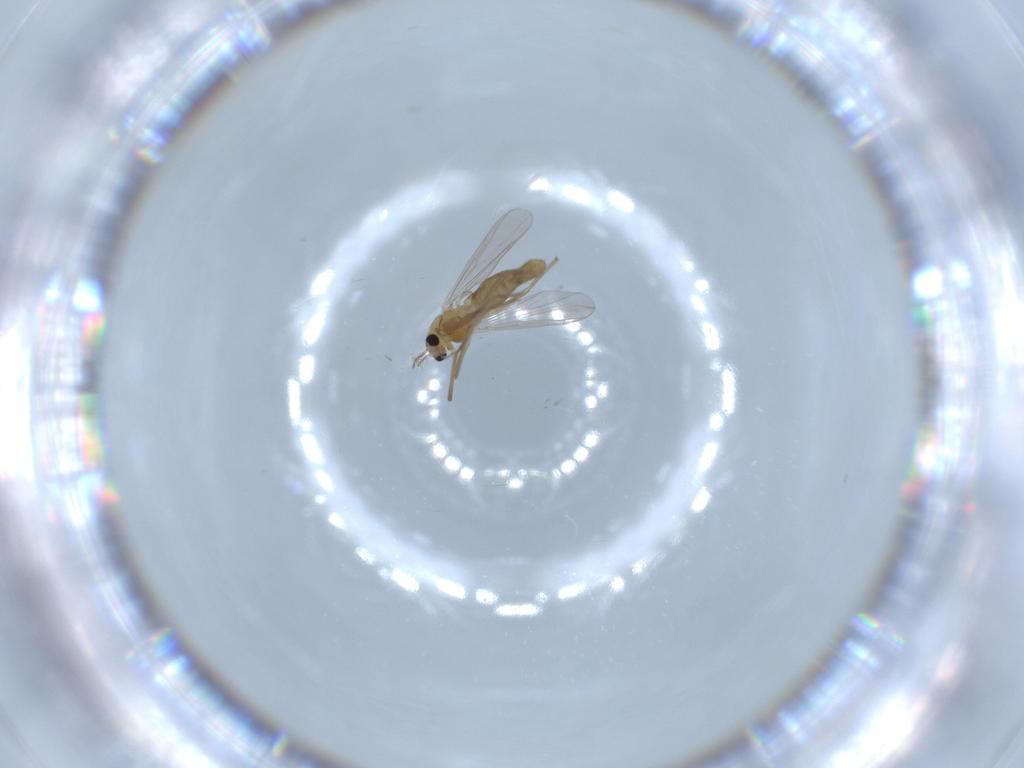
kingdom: Animalia
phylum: Arthropoda
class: Insecta
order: Diptera
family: Chironomidae
